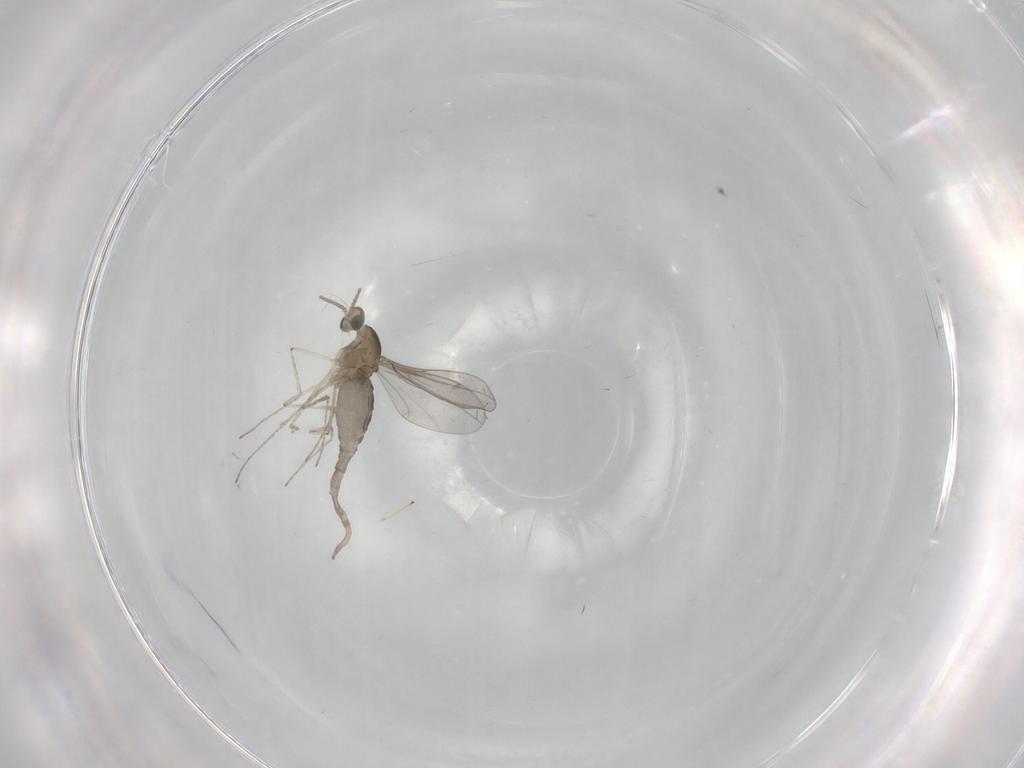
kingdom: Animalia
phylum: Arthropoda
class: Insecta
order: Diptera
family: Cecidomyiidae
